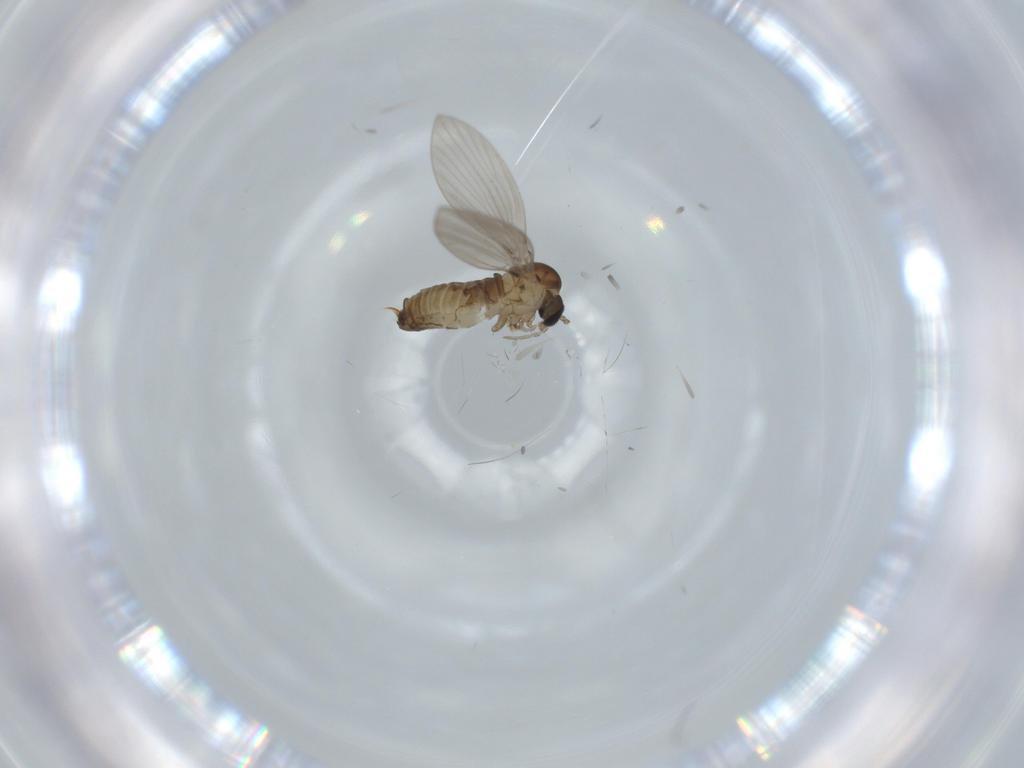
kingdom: Animalia
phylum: Arthropoda
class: Insecta
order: Diptera
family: Psychodidae
